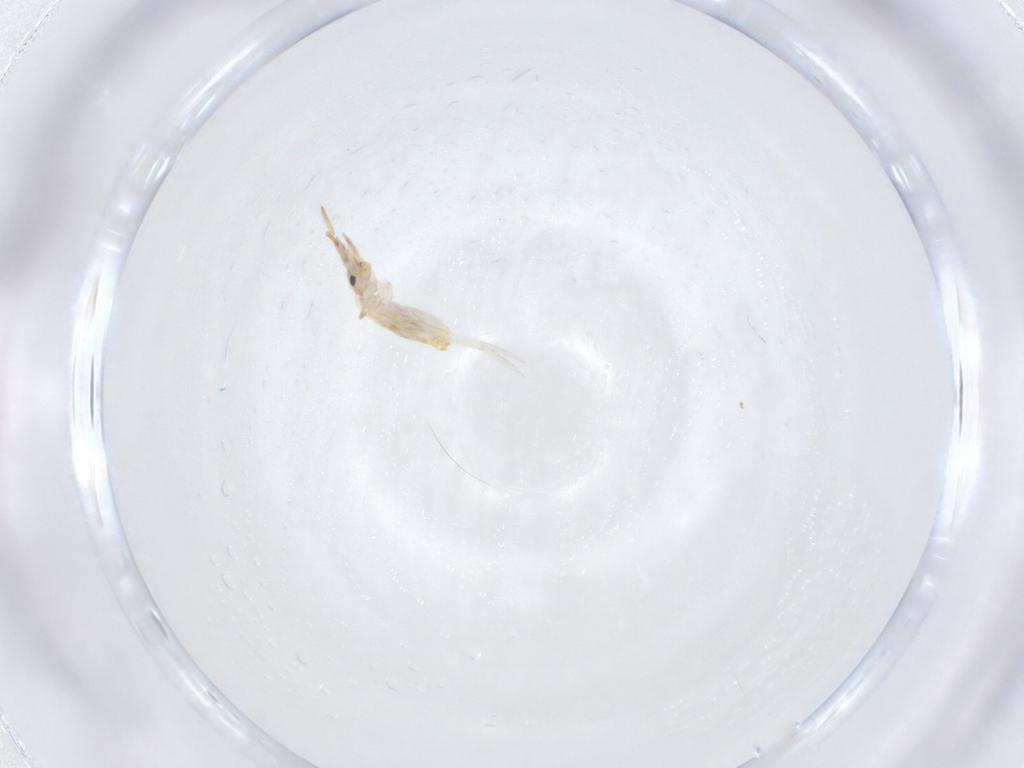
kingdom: Animalia
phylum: Arthropoda
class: Collembola
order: Entomobryomorpha
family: Entomobryidae
